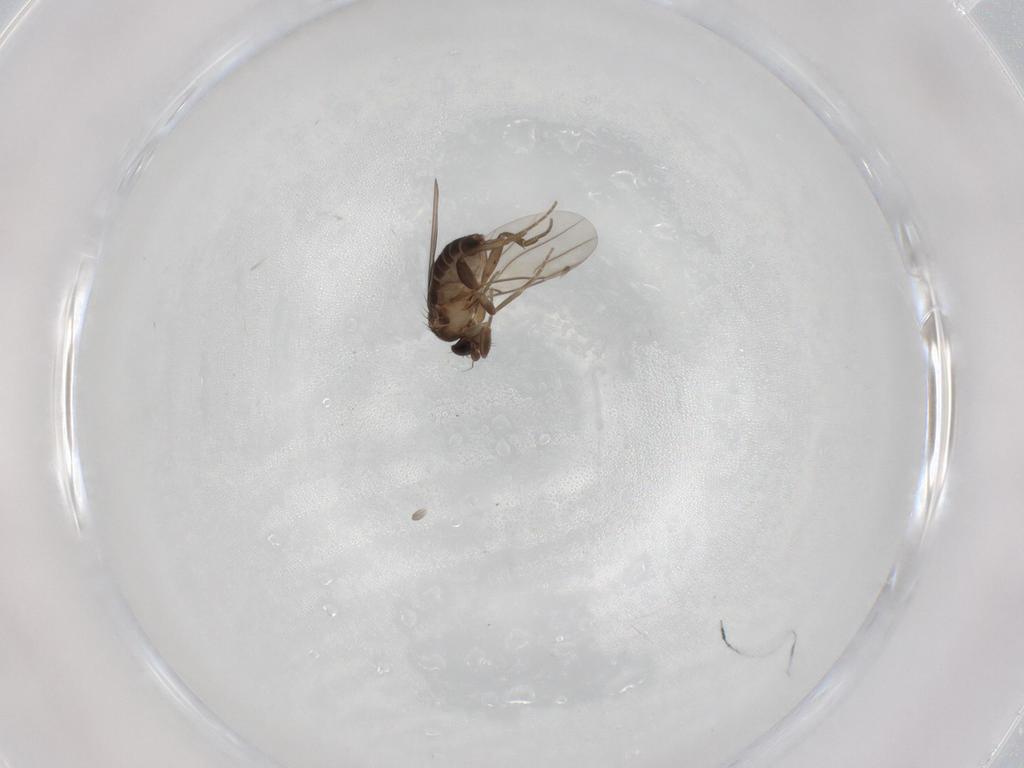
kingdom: Animalia
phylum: Arthropoda
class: Insecta
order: Diptera
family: Phoridae
